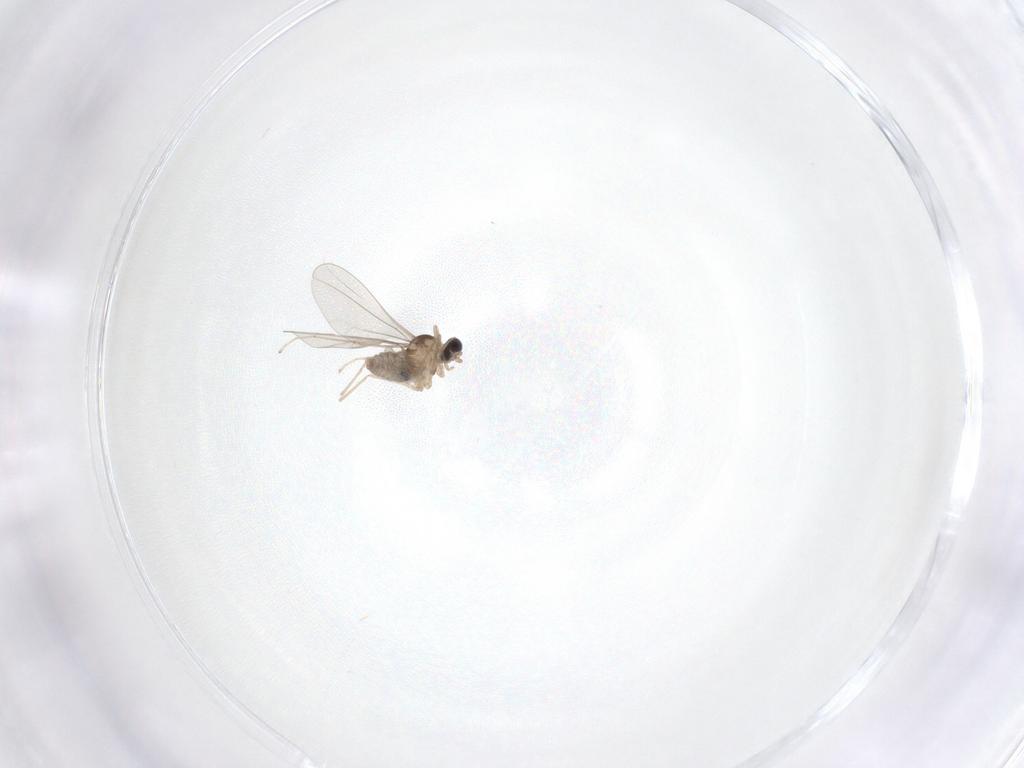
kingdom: Animalia
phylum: Arthropoda
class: Insecta
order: Diptera
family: Cecidomyiidae
